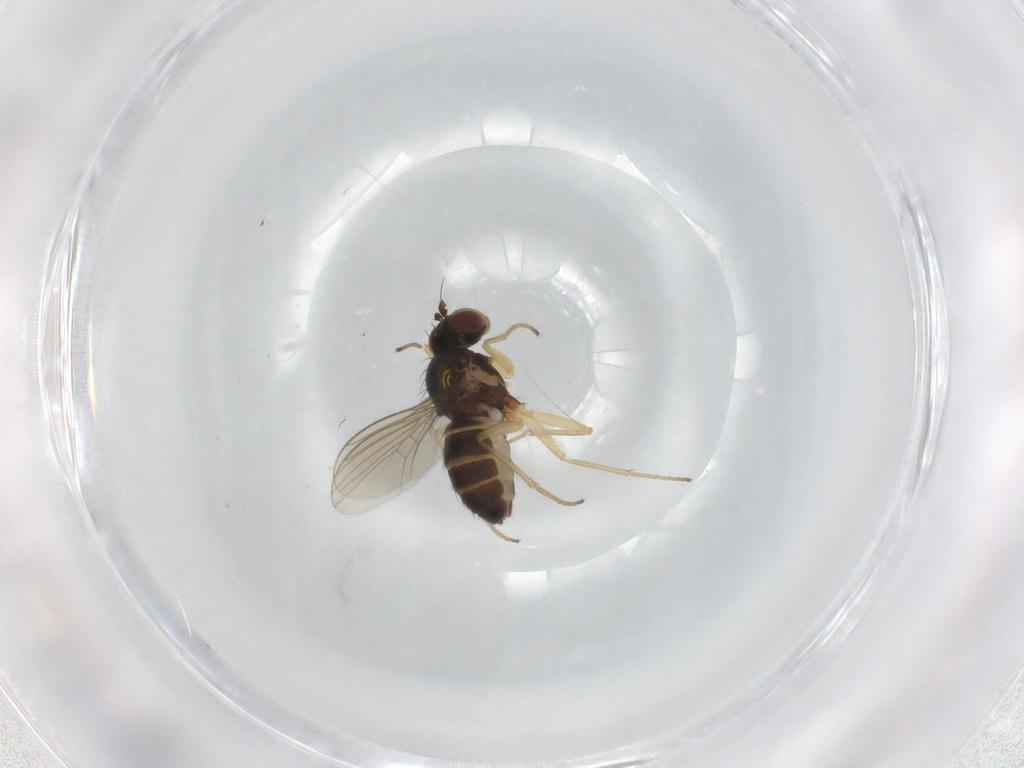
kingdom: Animalia
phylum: Arthropoda
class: Insecta
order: Diptera
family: Dolichopodidae
